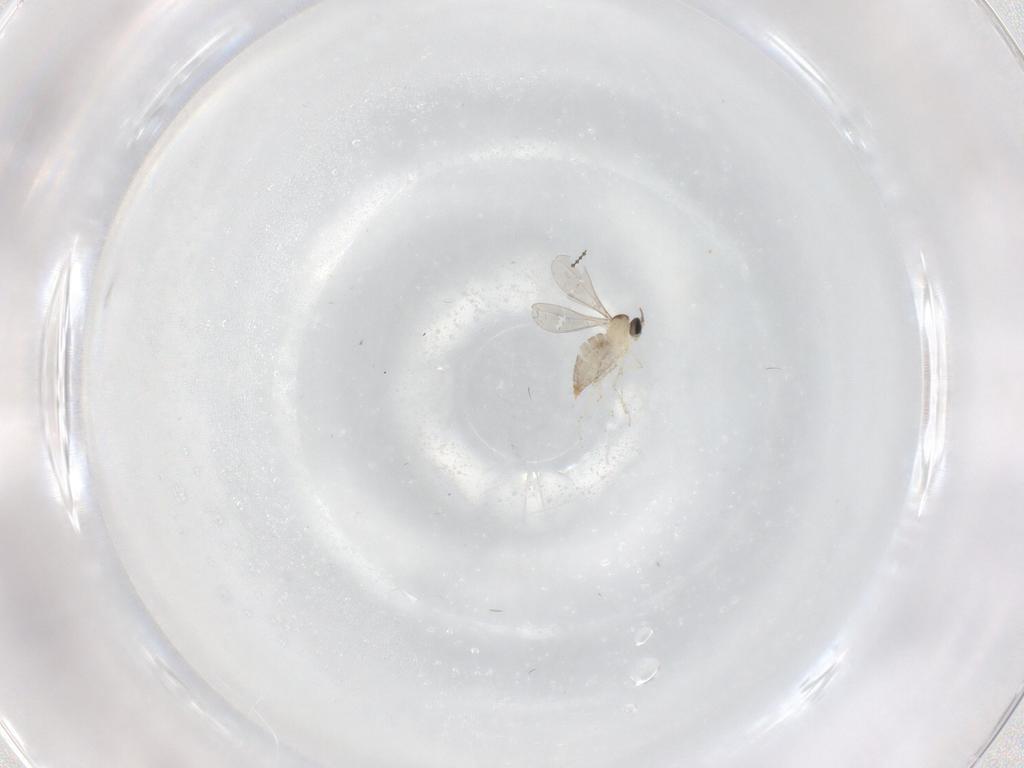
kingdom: Animalia
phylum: Arthropoda
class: Insecta
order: Diptera
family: Cecidomyiidae
